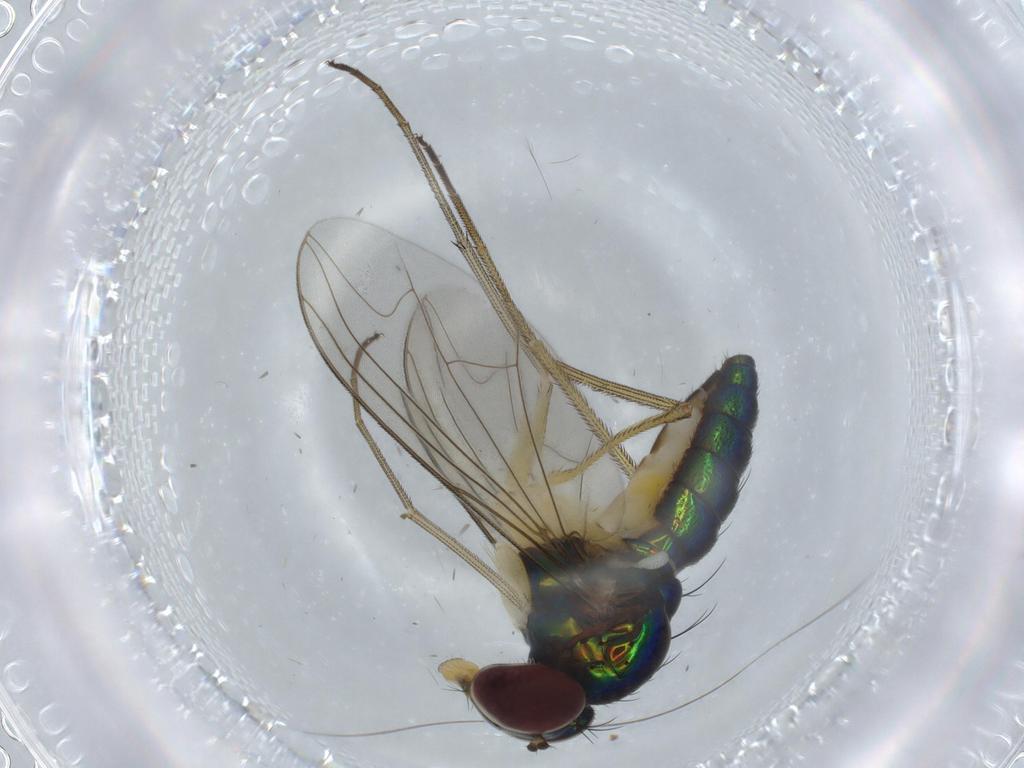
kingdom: Animalia
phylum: Arthropoda
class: Insecta
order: Diptera
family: Dolichopodidae
